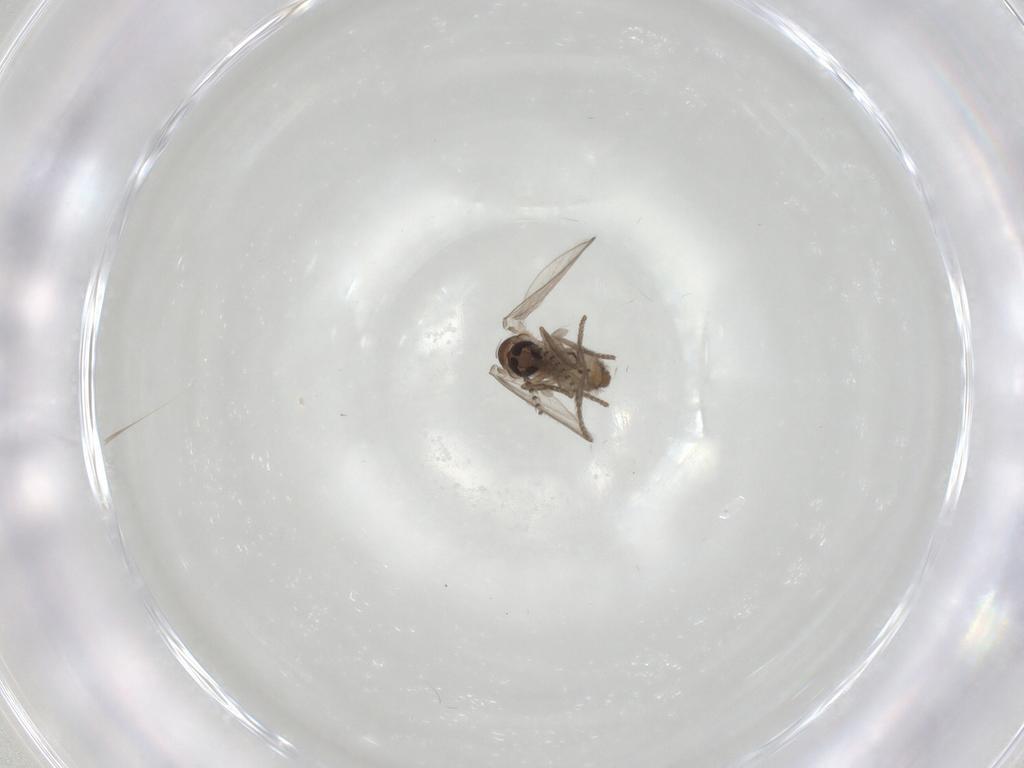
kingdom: Animalia
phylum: Arthropoda
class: Insecta
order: Diptera
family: Psychodidae
